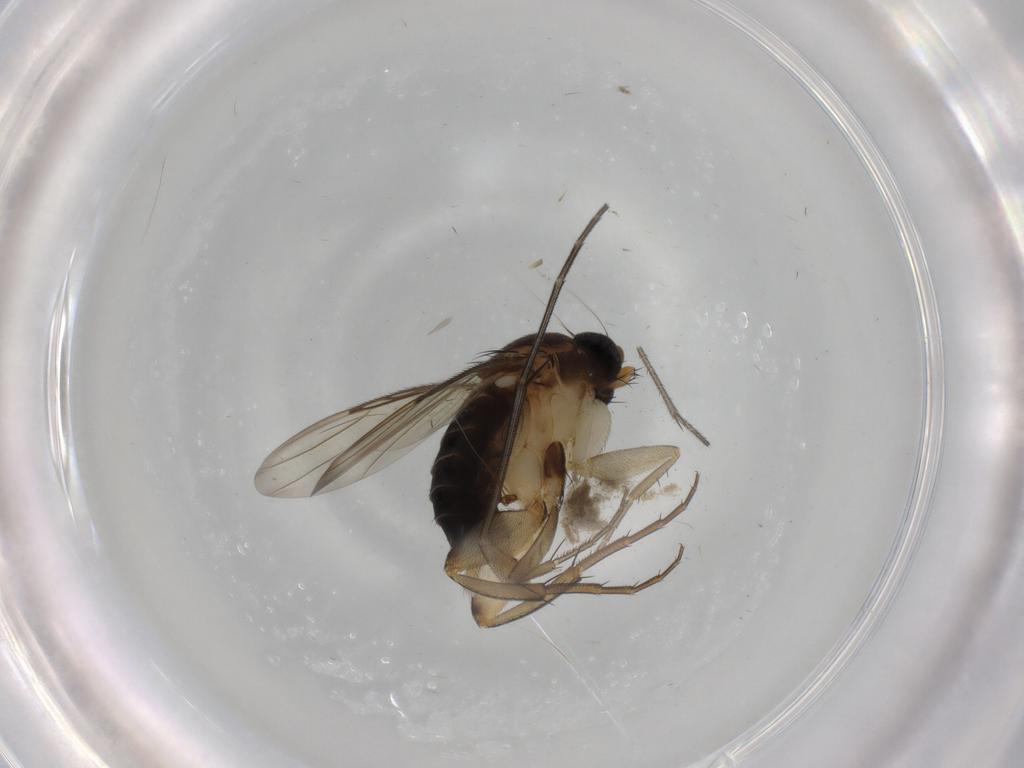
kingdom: Animalia
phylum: Arthropoda
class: Insecta
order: Diptera
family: Phoridae
